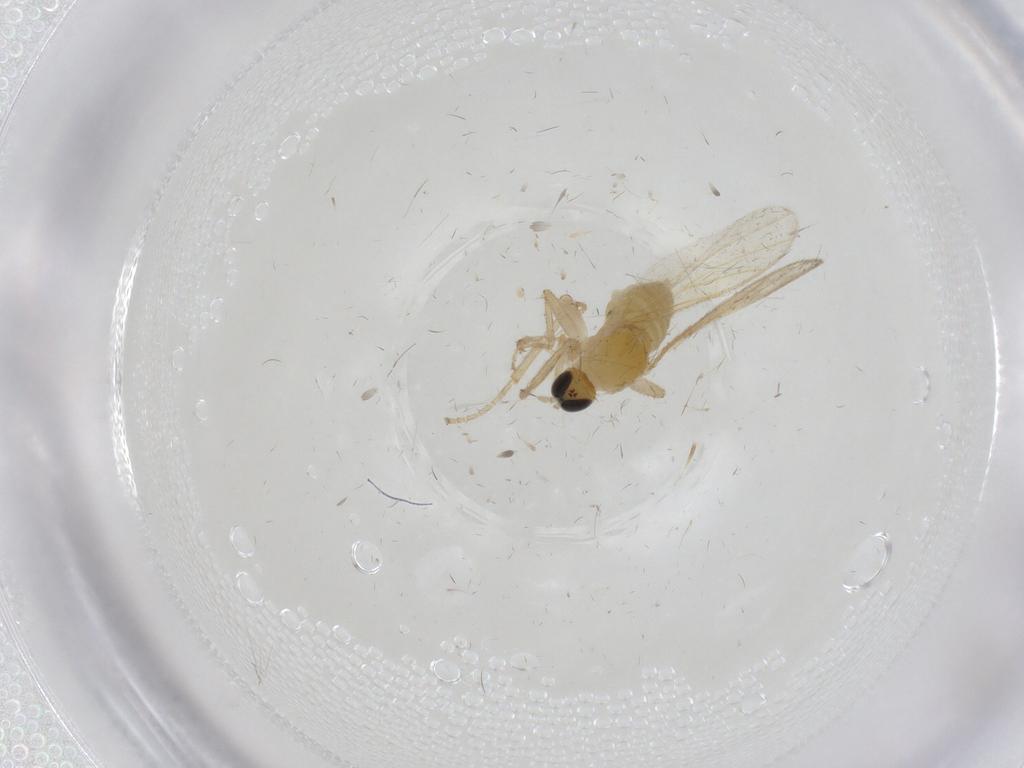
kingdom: Animalia
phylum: Arthropoda
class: Insecta
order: Diptera
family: Hybotidae
